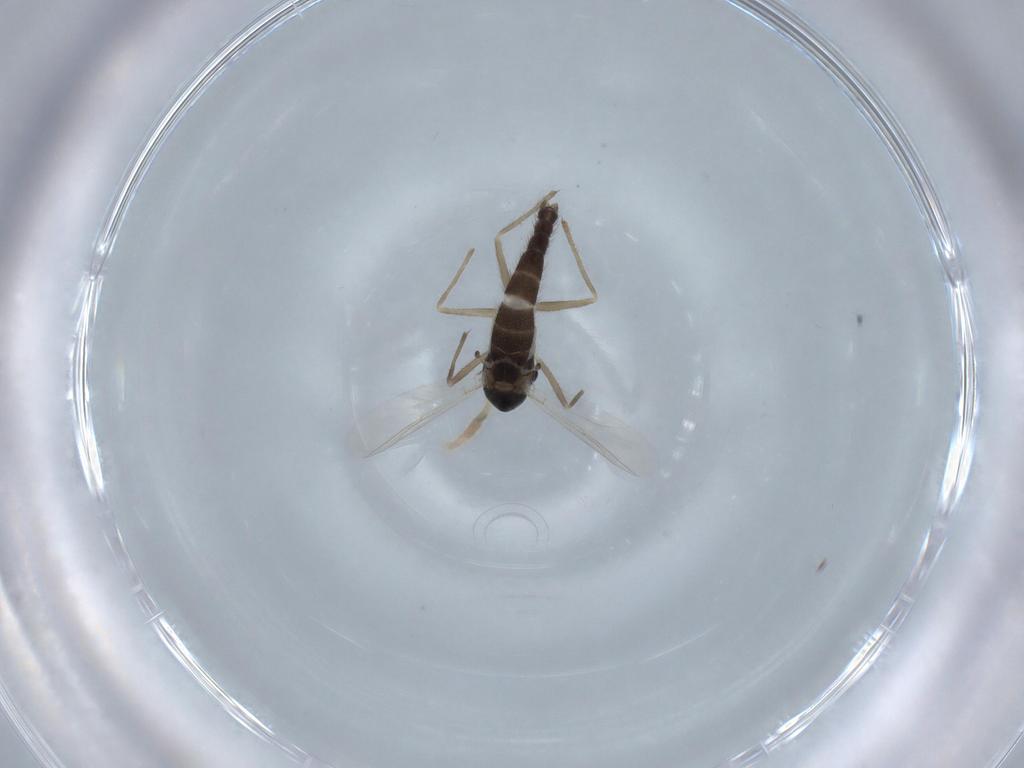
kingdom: Animalia
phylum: Arthropoda
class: Insecta
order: Diptera
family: Chironomidae
